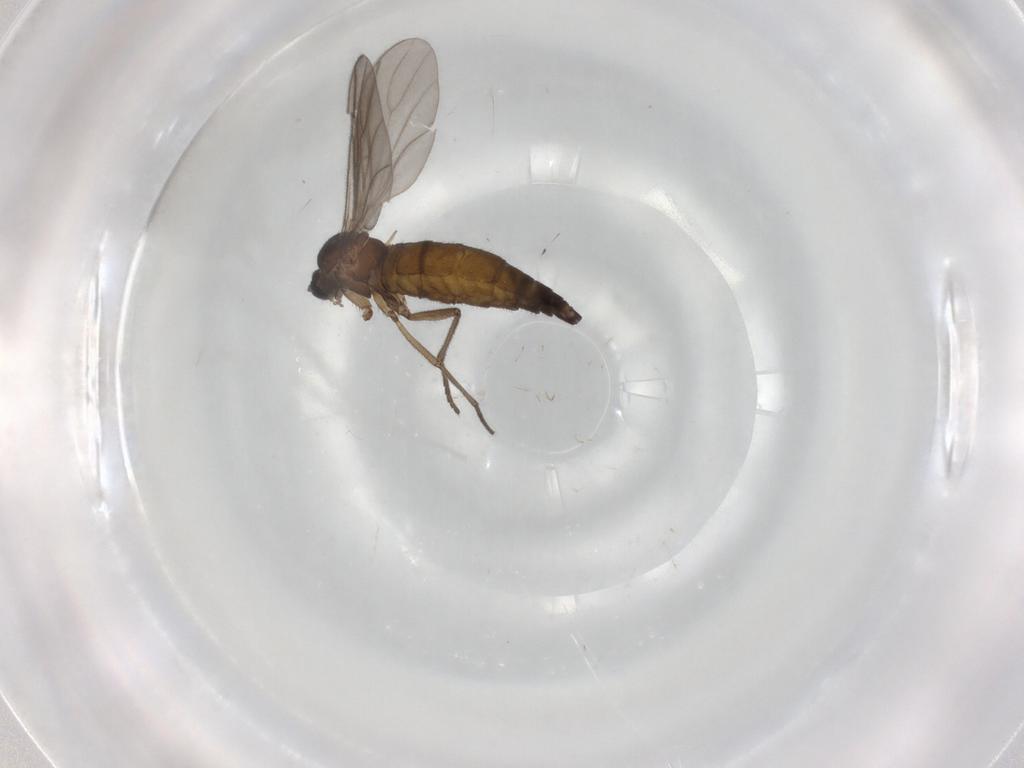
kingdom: Animalia
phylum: Arthropoda
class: Insecta
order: Diptera
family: Sciaridae
